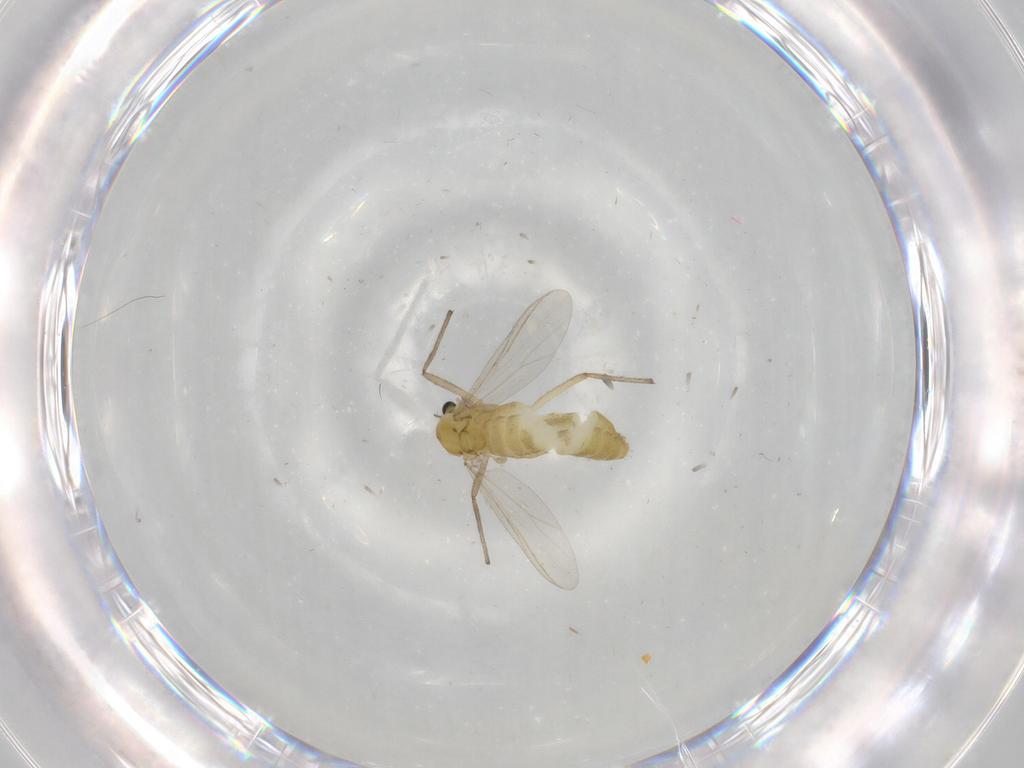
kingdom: Animalia
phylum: Arthropoda
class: Insecta
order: Diptera
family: Chironomidae
